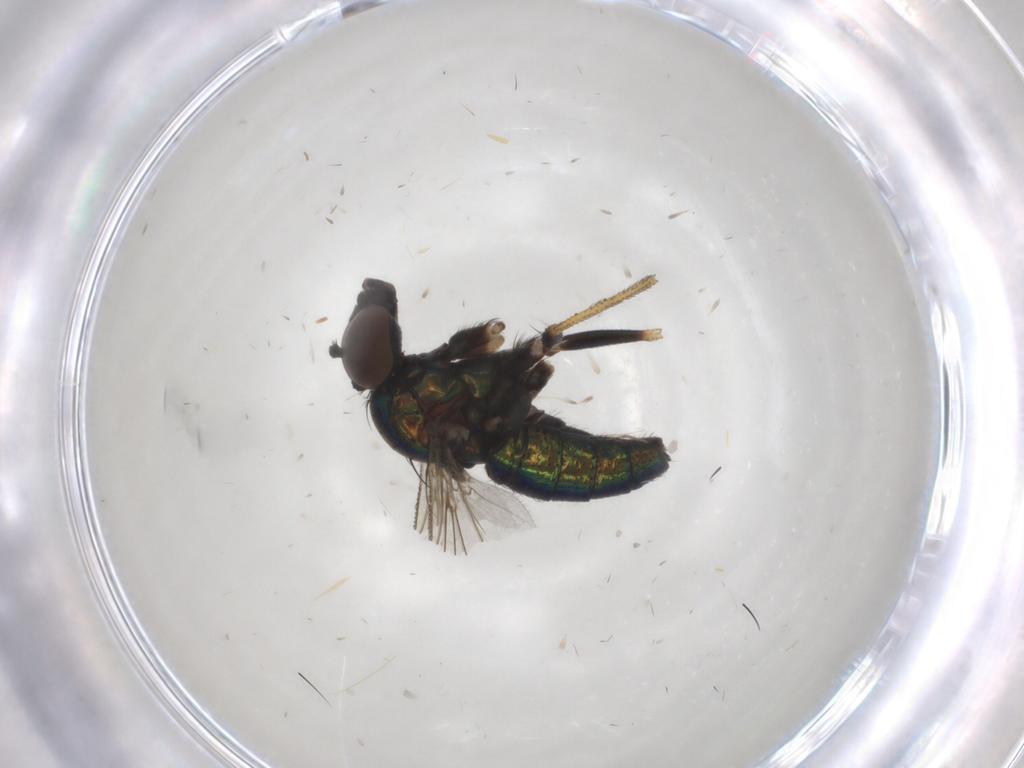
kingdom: Animalia
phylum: Arthropoda
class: Insecta
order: Diptera
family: Dolichopodidae
